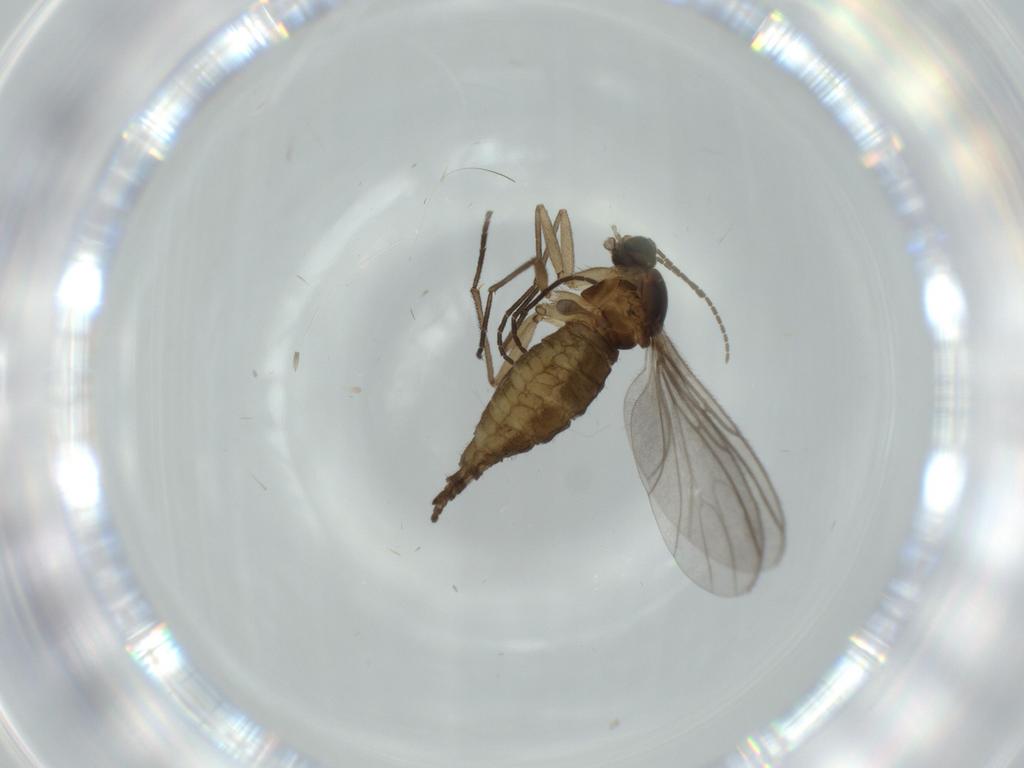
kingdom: Animalia
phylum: Arthropoda
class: Insecta
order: Diptera
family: Sciaridae
